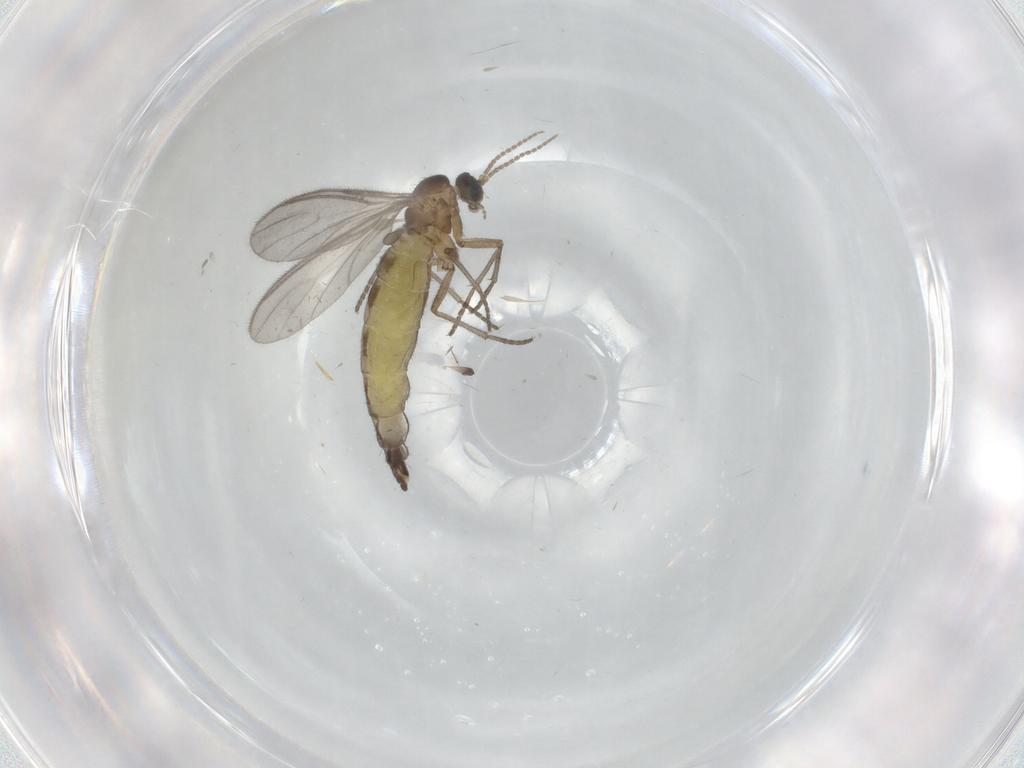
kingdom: Animalia
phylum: Arthropoda
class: Insecta
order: Diptera
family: Sciaridae
